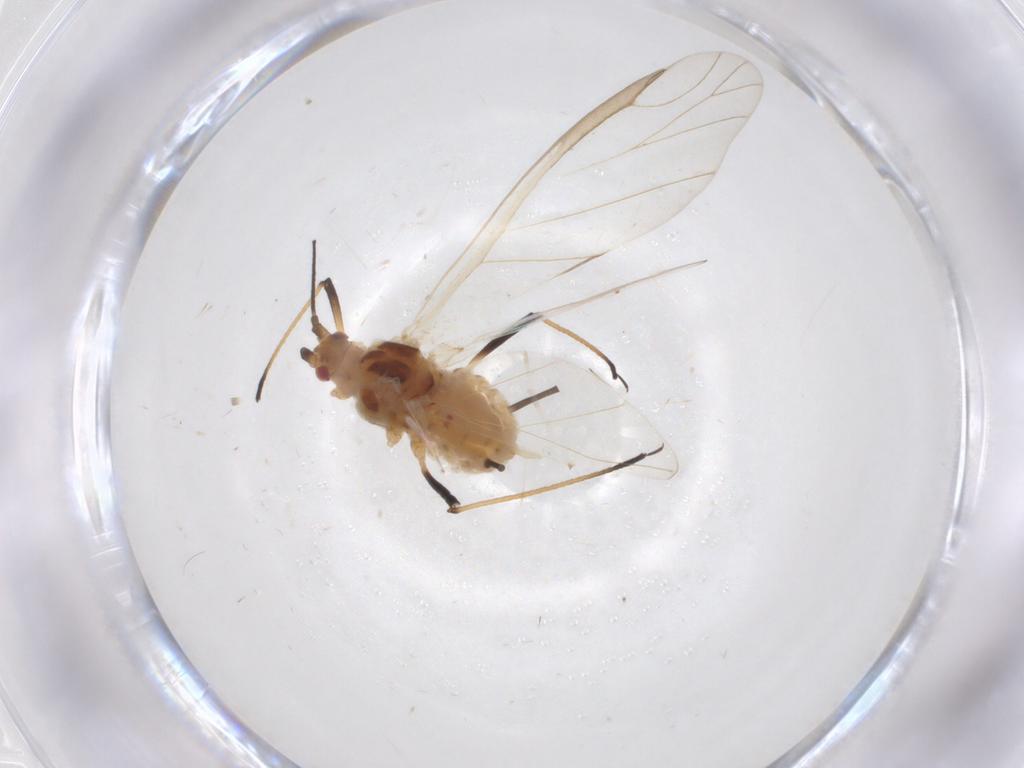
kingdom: Animalia
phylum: Arthropoda
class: Insecta
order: Hemiptera
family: Aphididae
